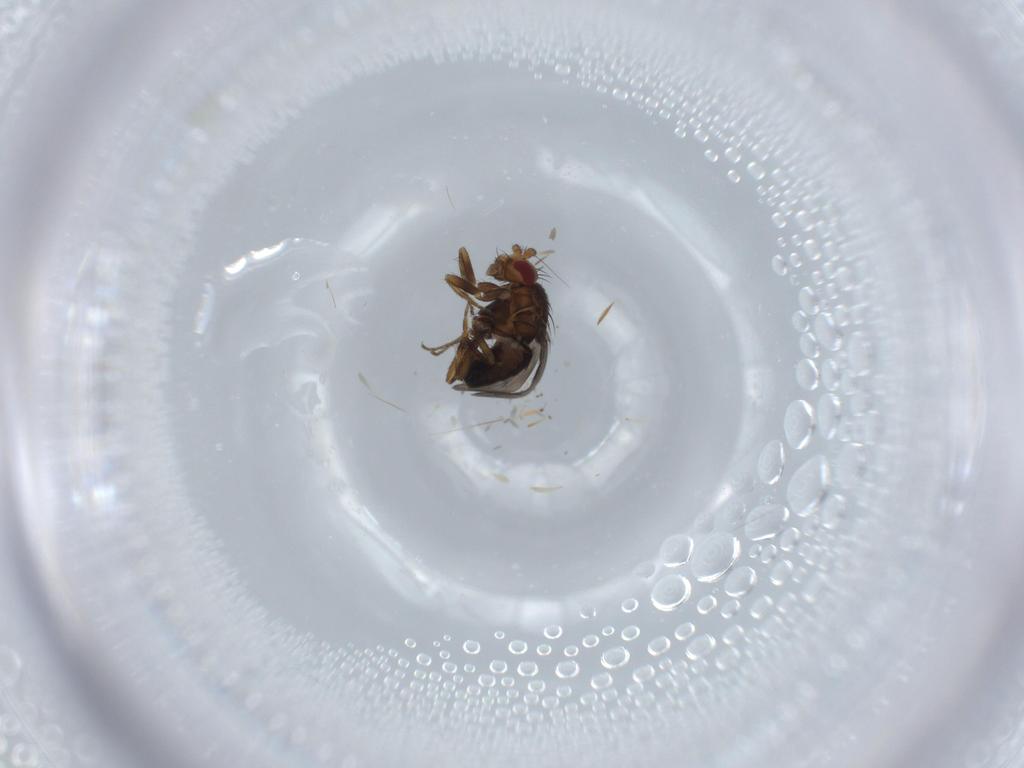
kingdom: Animalia
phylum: Arthropoda
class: Insecta
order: Diptera
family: Sphaeroceridae
